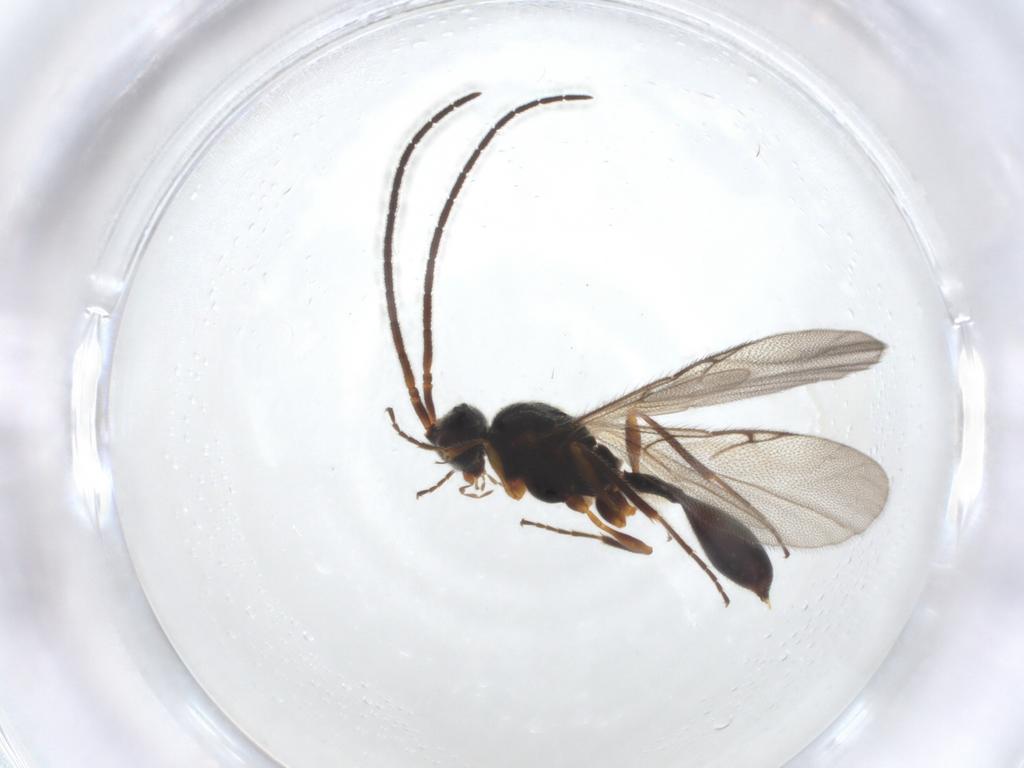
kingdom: Animalia
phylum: Arthropoda
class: Insecta
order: Hymenoptera
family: Diapriidae
